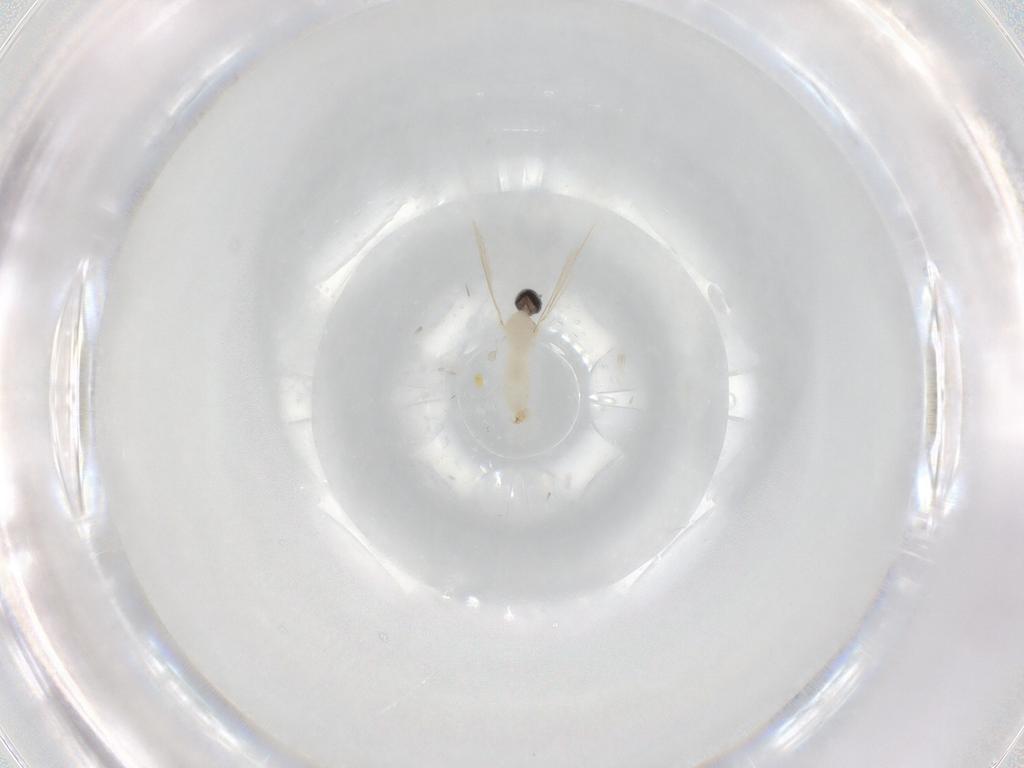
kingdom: Animalia
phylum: Arthropoda
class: Insecta
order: Diptera
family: Cecidomyiidae
